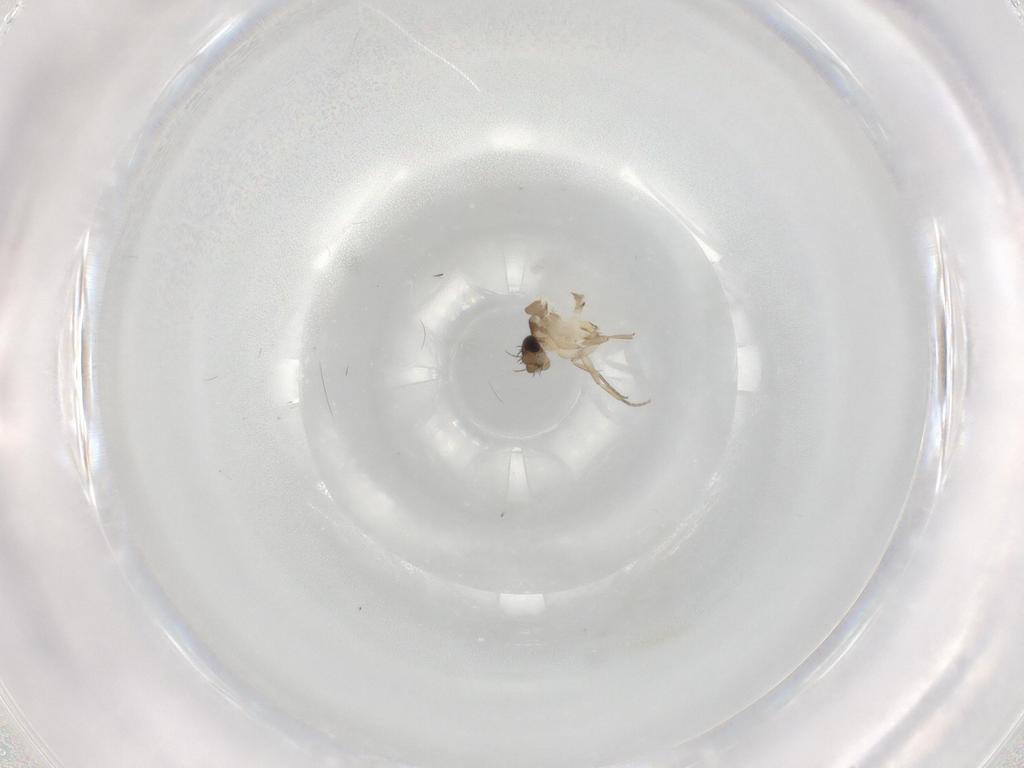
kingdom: Animalia
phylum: Arthropoda
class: Insecta
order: Diptera
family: Phoridae
